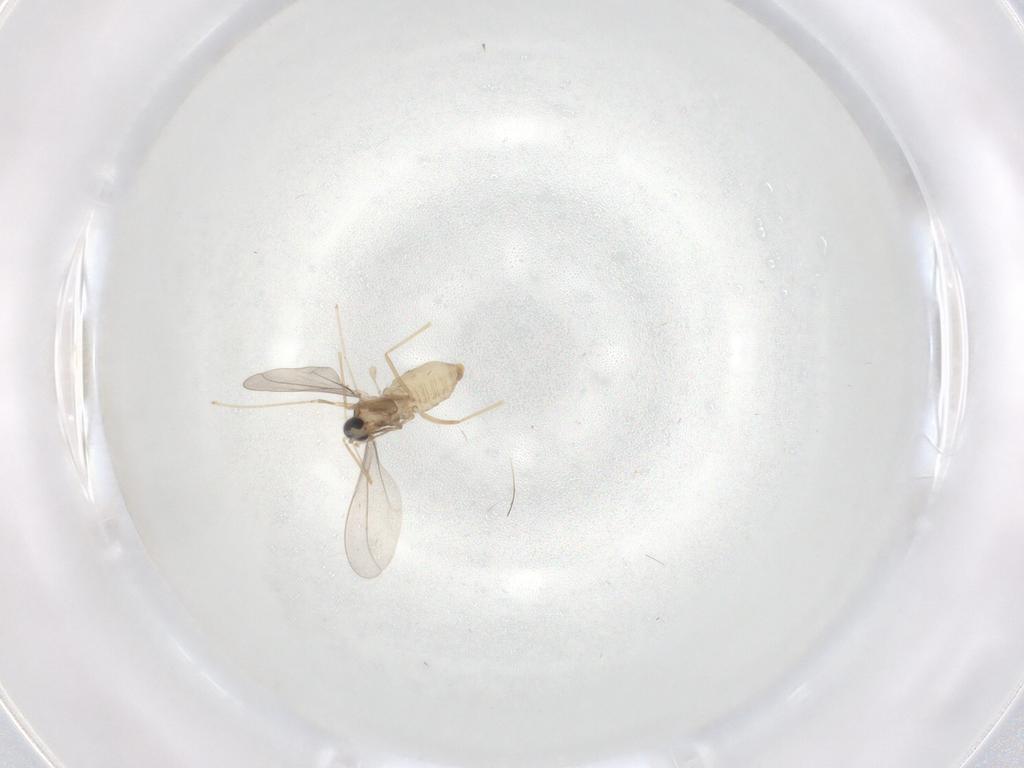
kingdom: Animalia
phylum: Arthropoda
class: Insecta
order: Diptera
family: Cecidomyiidae
